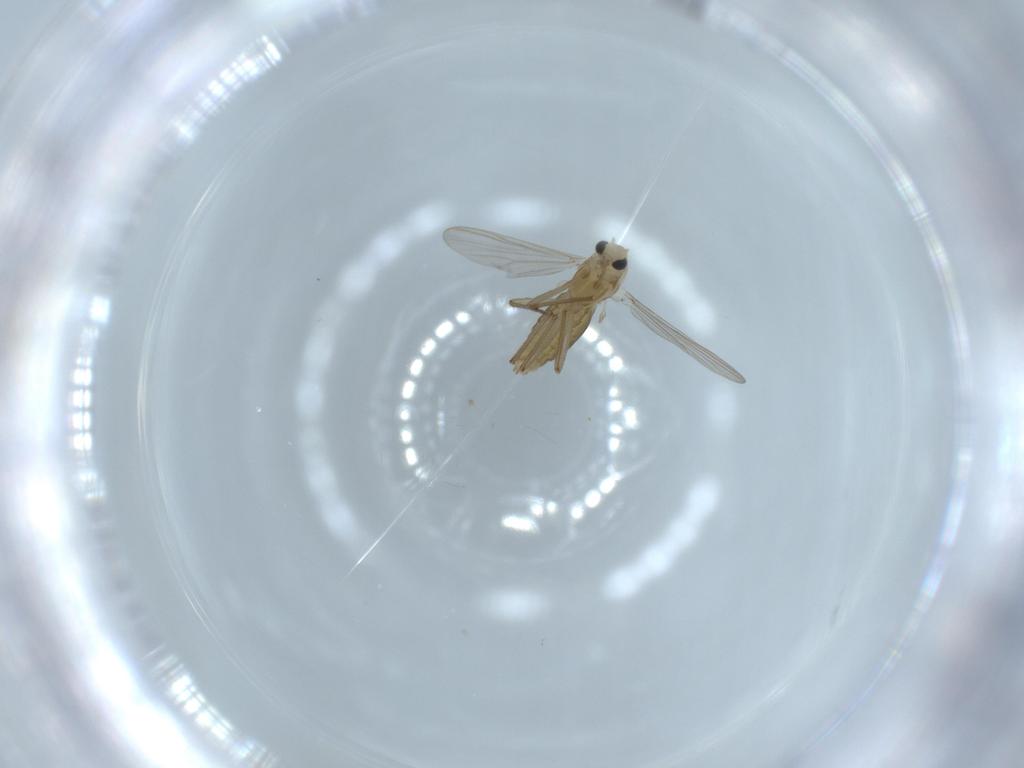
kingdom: Animalia
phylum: Arthropoda
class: Insecta
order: Diptera
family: Chironomidae
